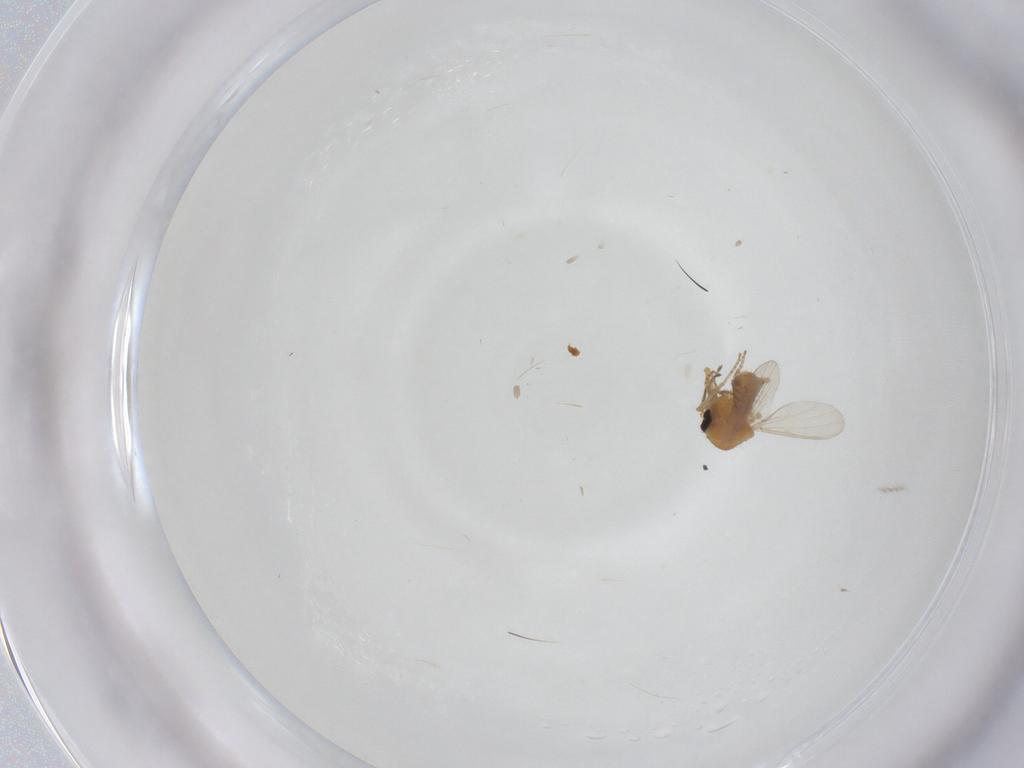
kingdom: Animalia
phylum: Arthropoda
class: Insecta
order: Diptera
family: Ceratopogonidae
